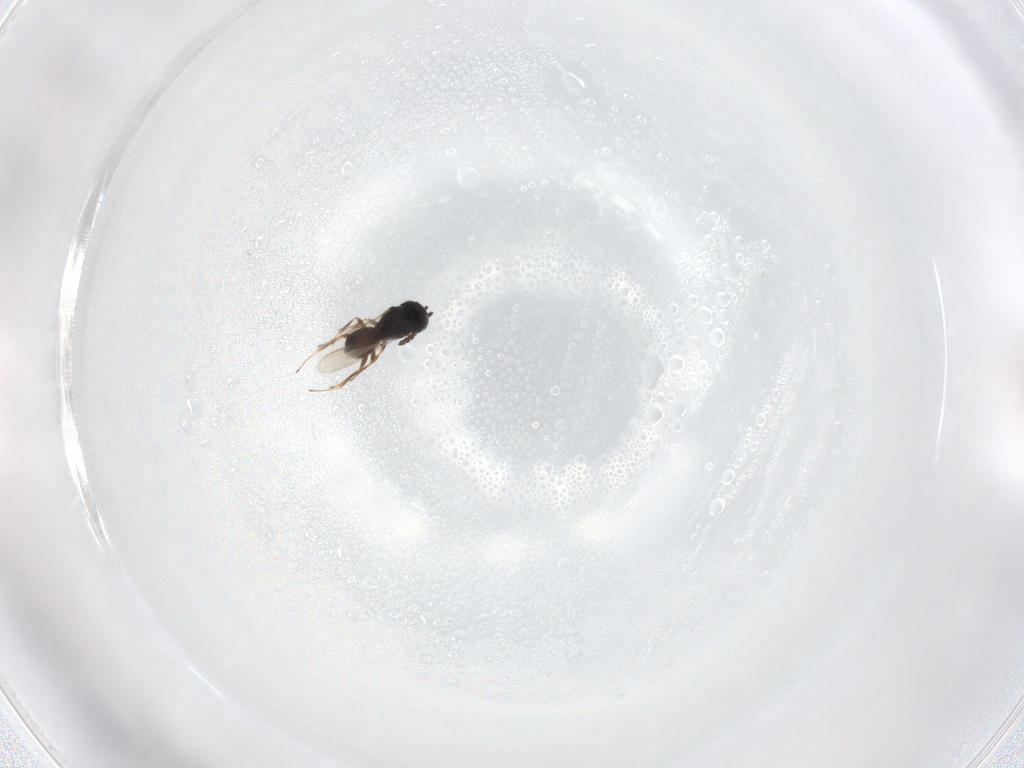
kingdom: Animalia
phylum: Arthropoda
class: Insecta
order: Hymenoptera
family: Scelionidae
